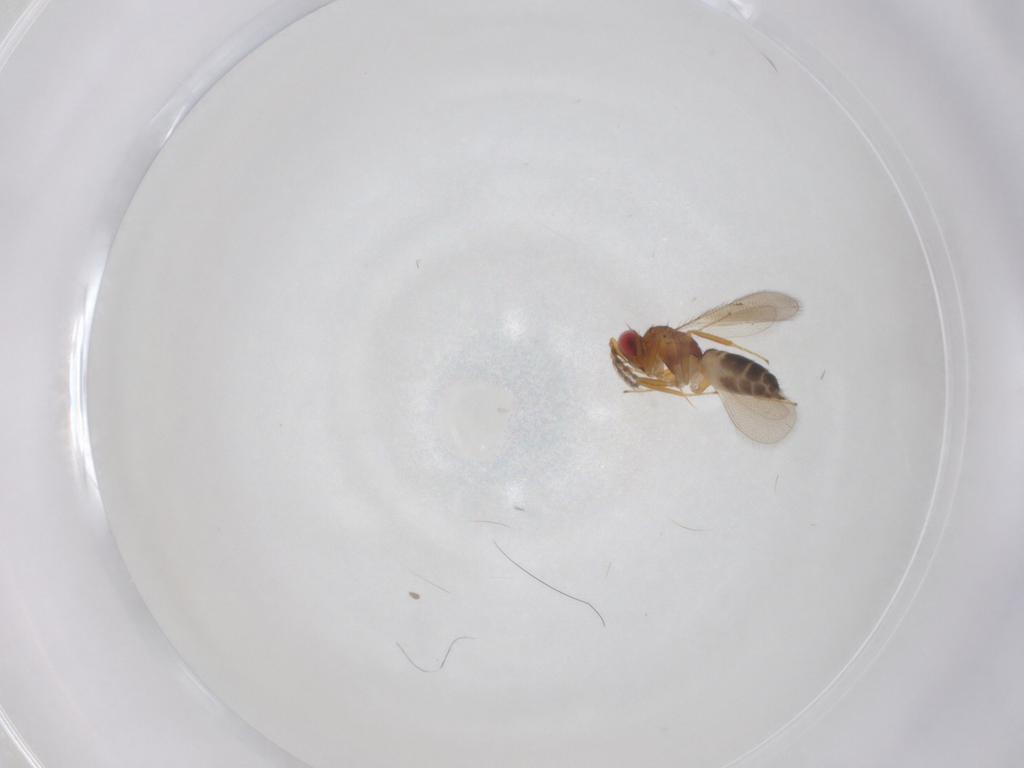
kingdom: Animalia
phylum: Arthropoda
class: Insecta
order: Hymenoptera
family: Eulophidae
